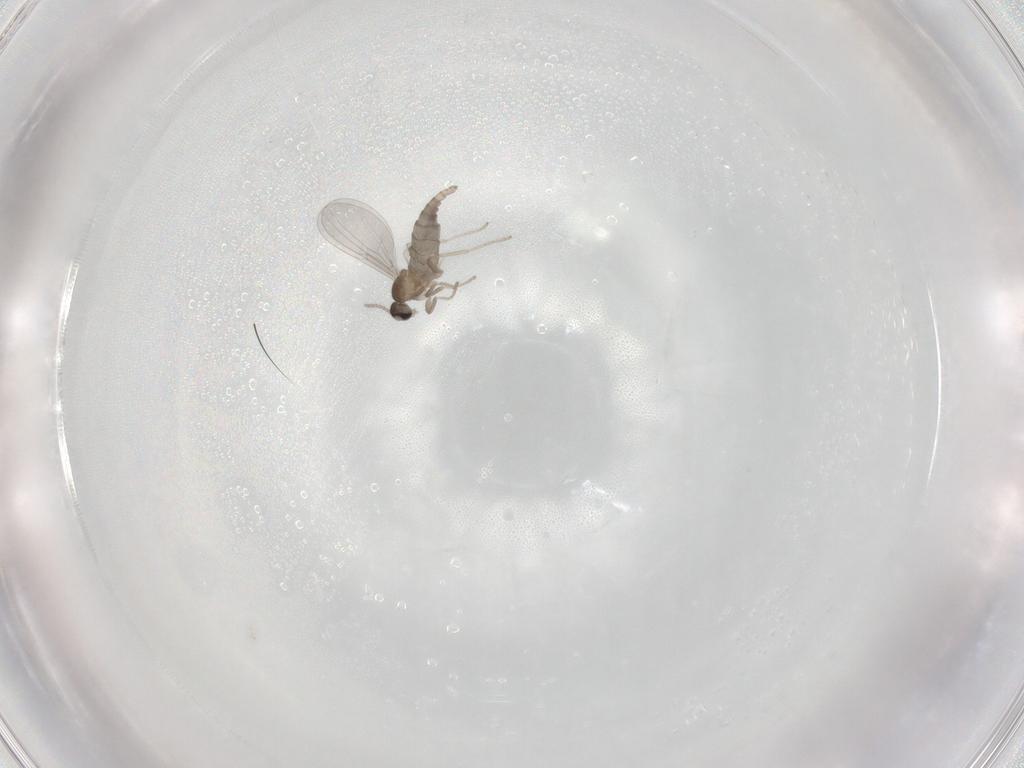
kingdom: Animalia
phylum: Arthropoda
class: Insecta
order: Diptera
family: Cecidomyiidae
